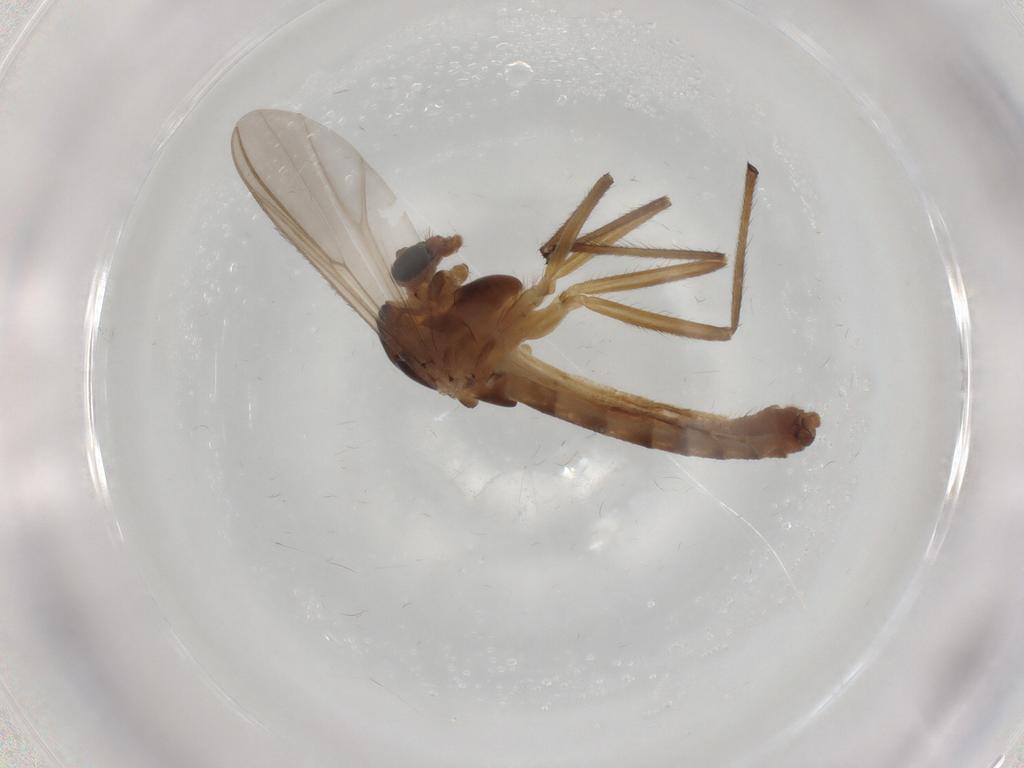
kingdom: Animalia
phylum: Arthropoda
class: Insecta
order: Diptera
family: Chironomidae
